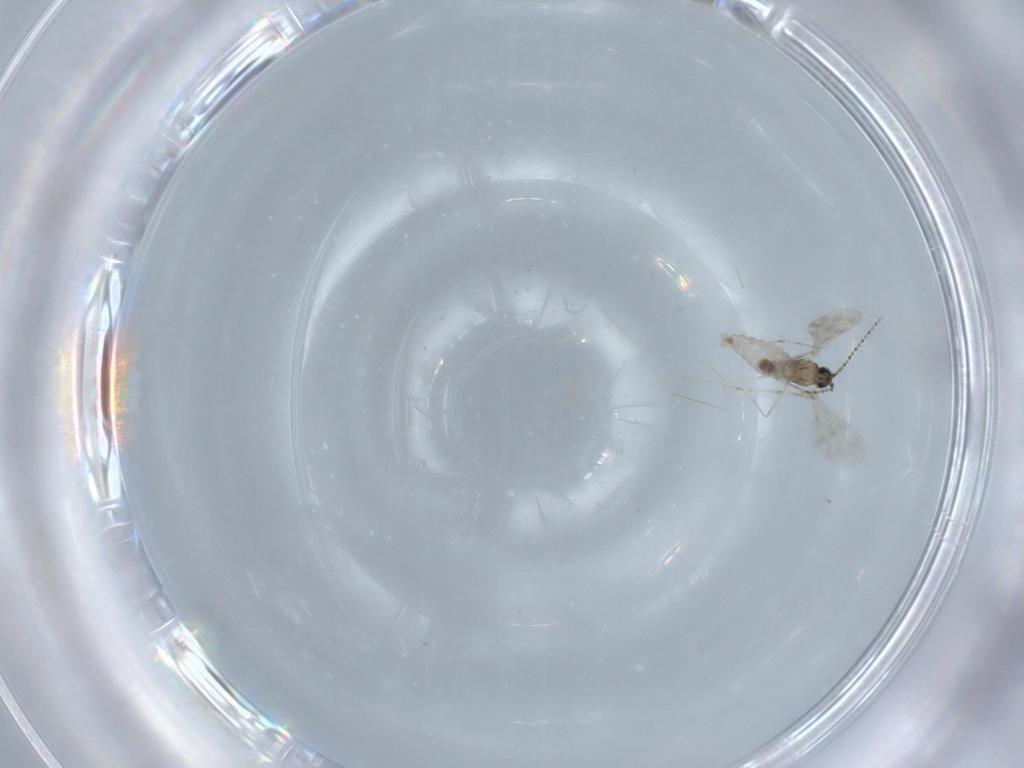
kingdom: Animalia
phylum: Arthropoda
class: Insecta
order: Diptera
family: Cecidomyiidae
